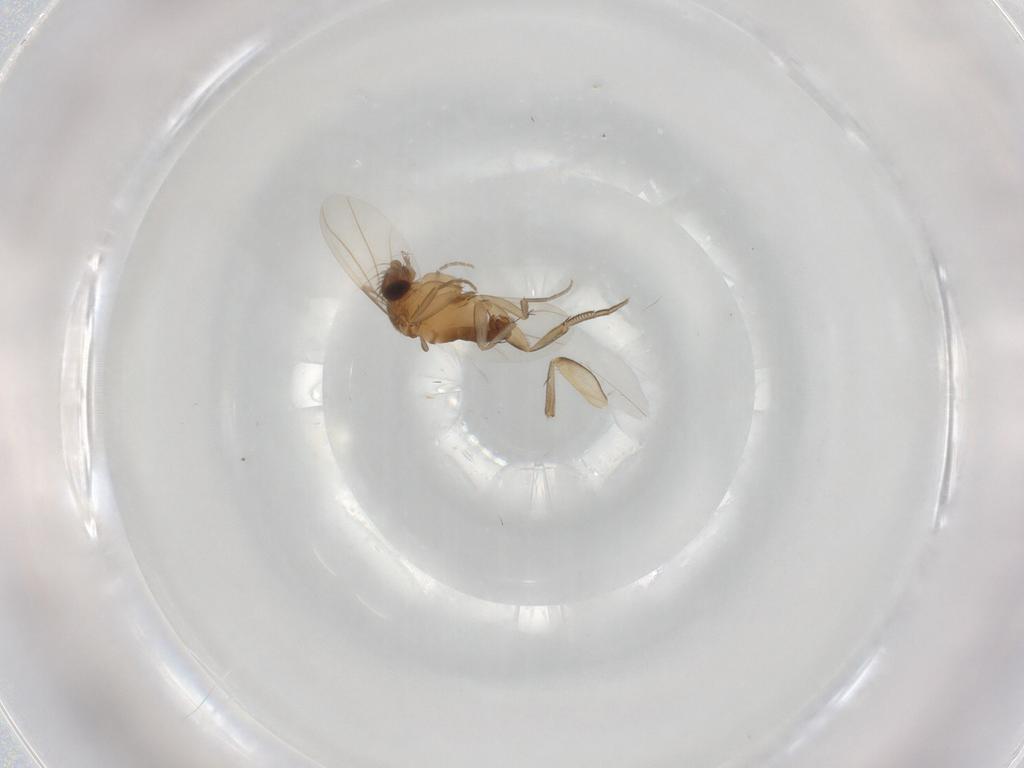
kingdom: Animalia
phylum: Arthropoda
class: Insecta
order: Diptera
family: Phoridae
